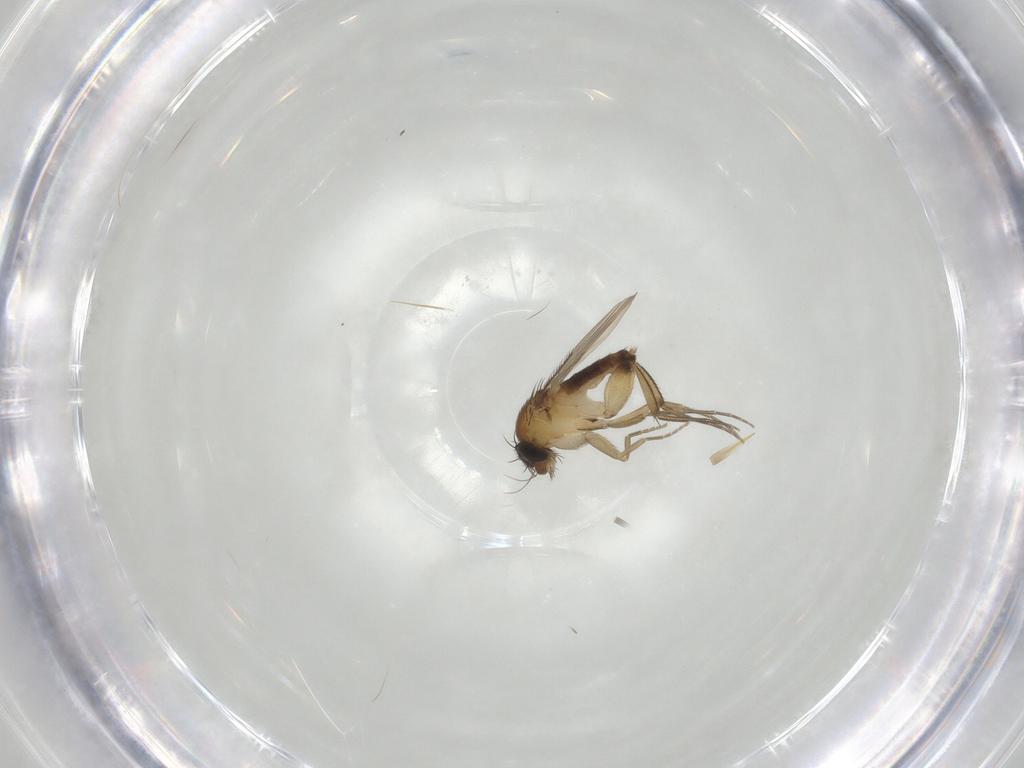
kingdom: Animalia
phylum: Arthropoda
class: Insecta
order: Diptera
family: Phoridae
